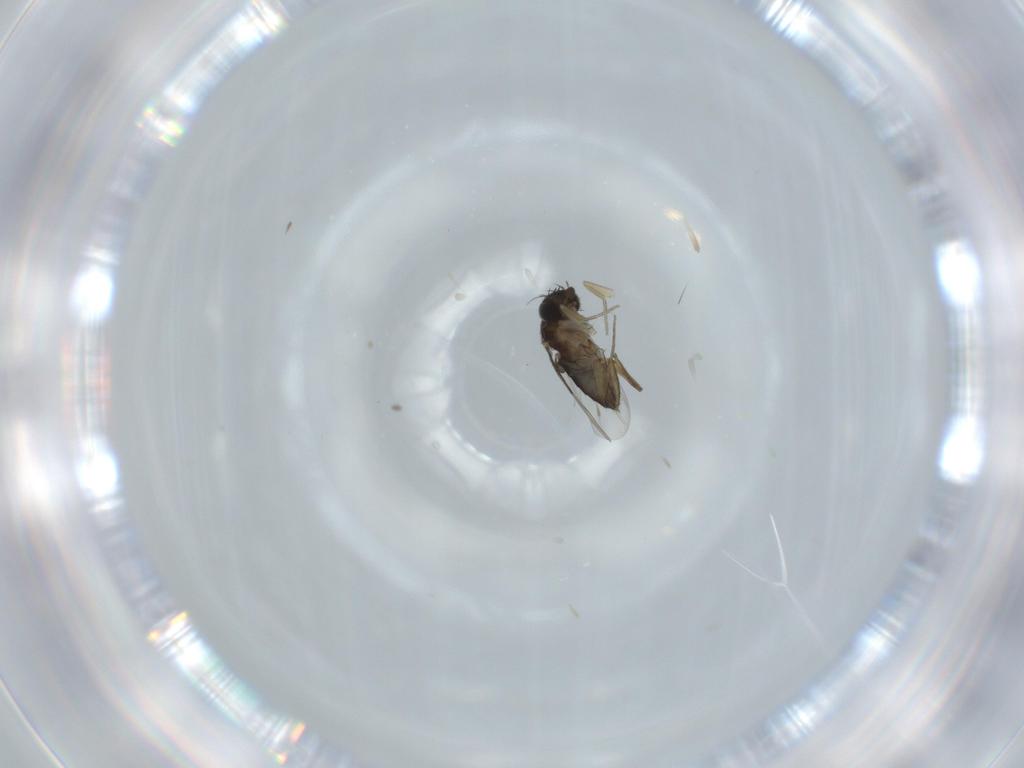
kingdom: Animalia
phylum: Arthropoda
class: Insecta
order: Diptera
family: Phoridae
